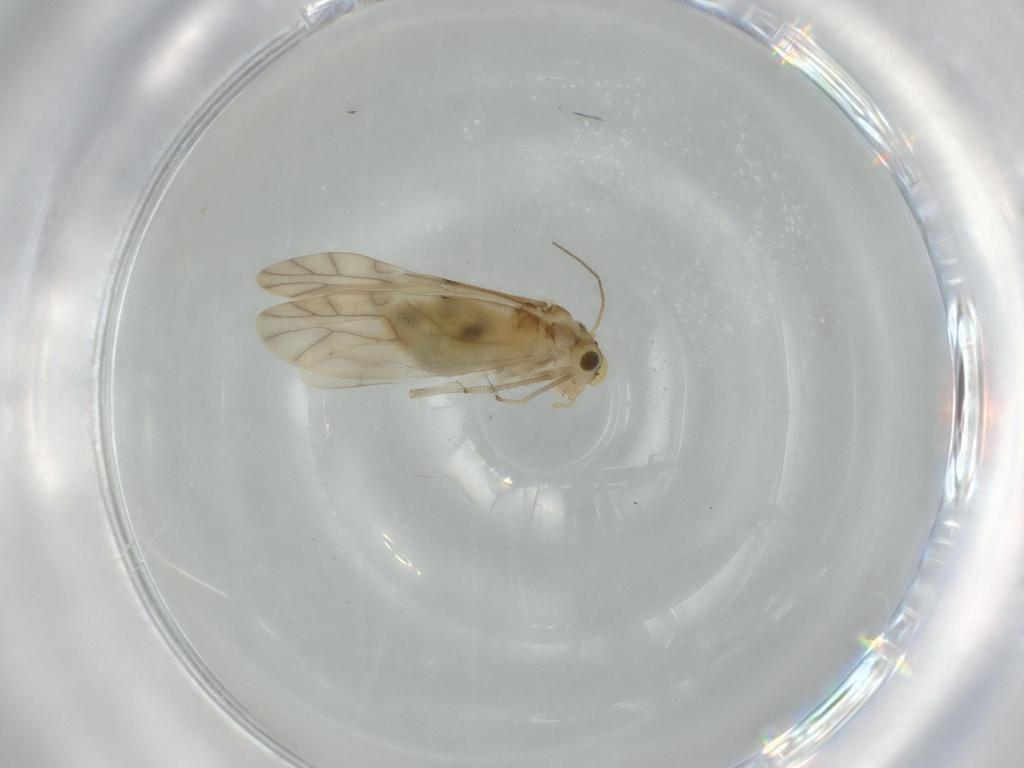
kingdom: Animalia
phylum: Arthropoda
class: Insecta
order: Psocodea
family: Caeciliusidae
